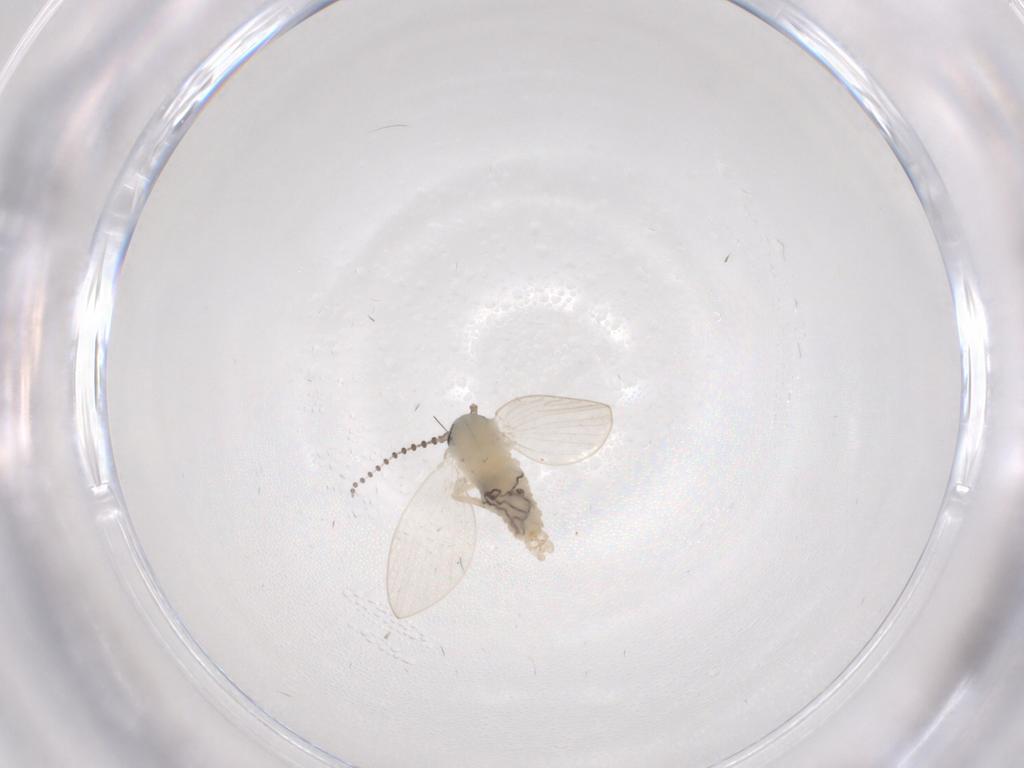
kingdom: Animalia
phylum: Arthropoda
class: Insecta
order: Diptera
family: Psychodidae
